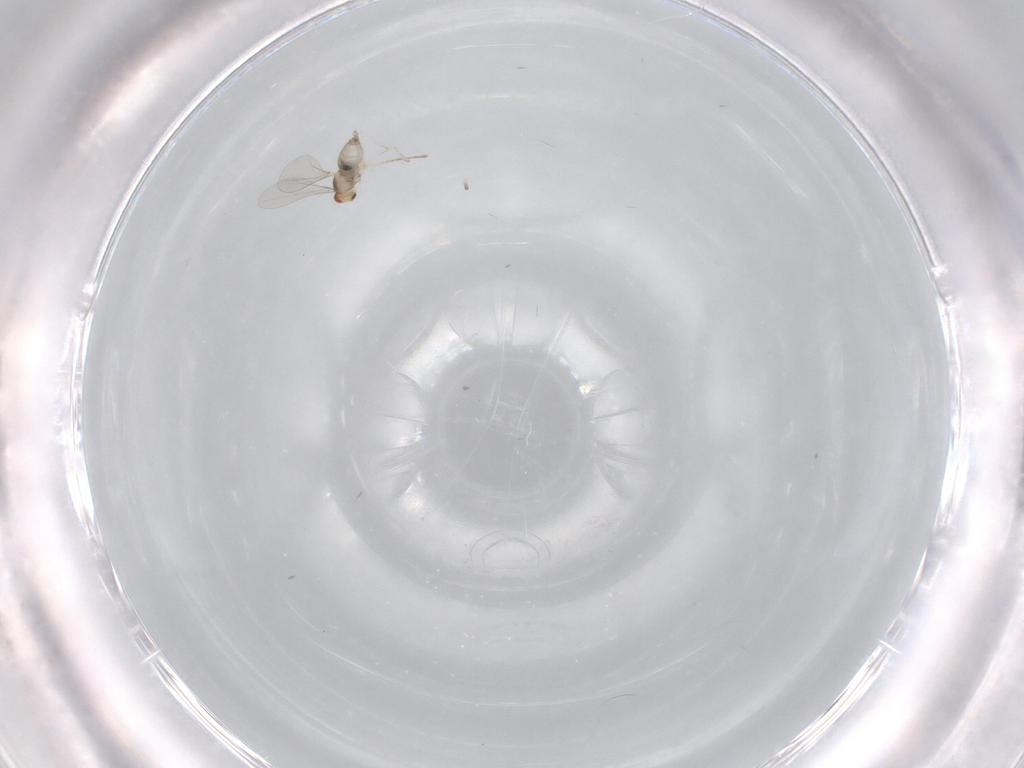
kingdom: Animalia
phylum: Arthropoda
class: Insecta
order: Diptera
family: Cecidomyiidae
